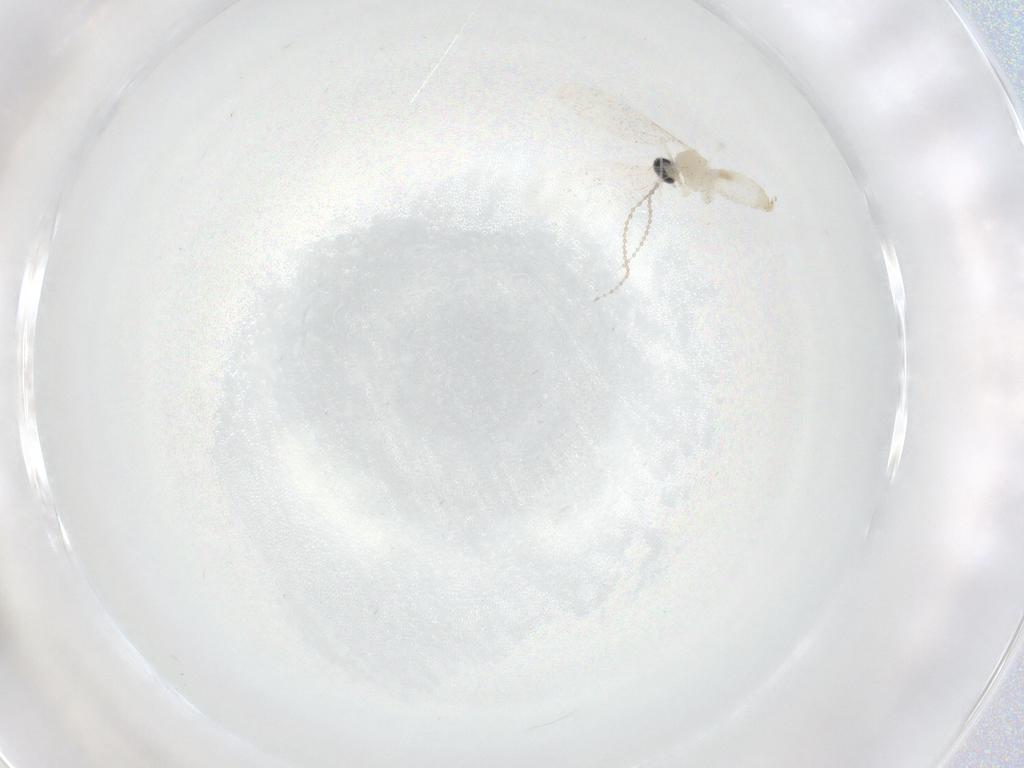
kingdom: Animalia
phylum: Arthropoda
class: Insecta
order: Diptera
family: Cecidomyiidae
